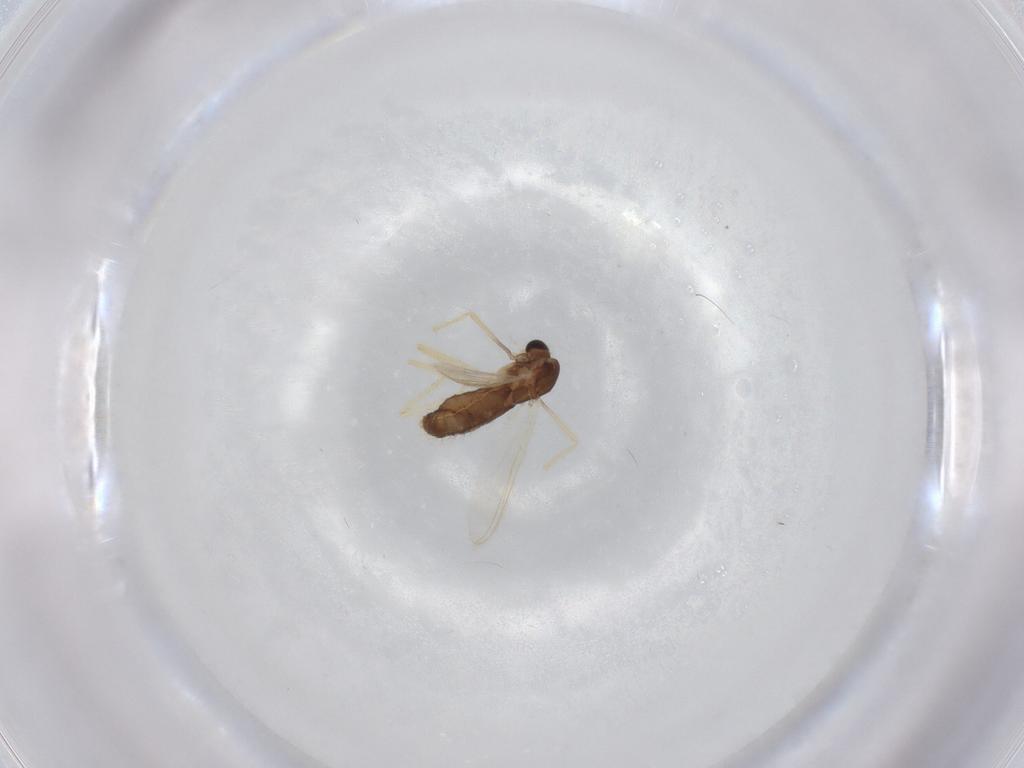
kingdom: Animalia
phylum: Arthropoda
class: Insecta
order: Diptera
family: Chironomidae
